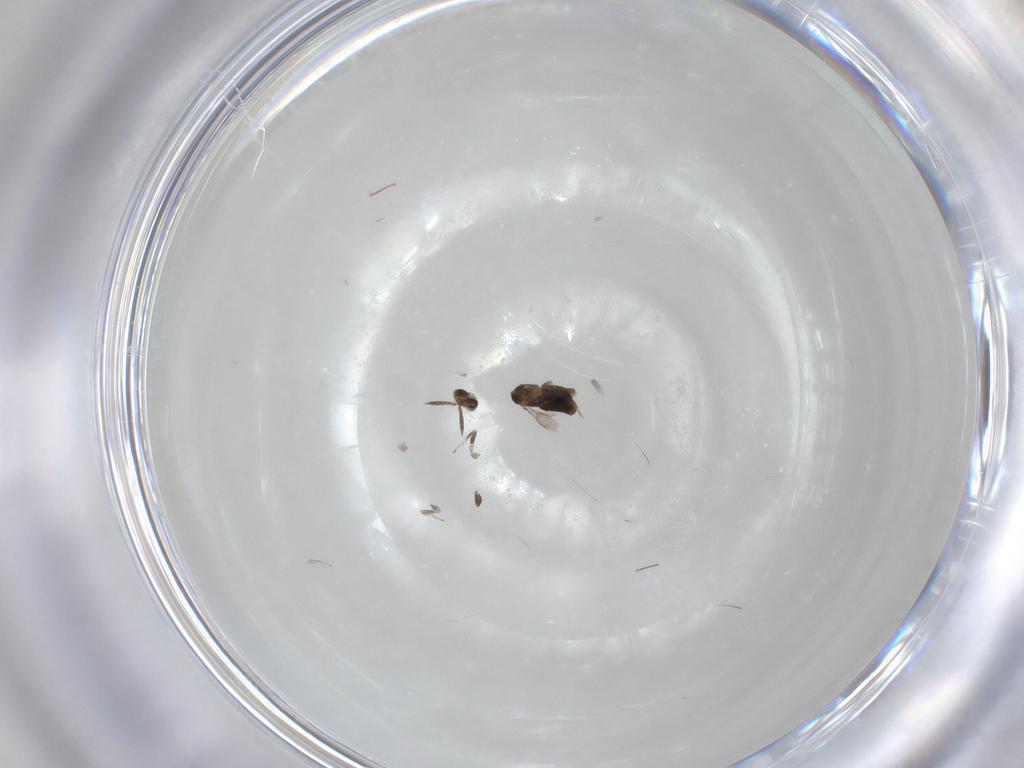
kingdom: Animalia
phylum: Arthropoda
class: Insecta
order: Hymenoptera
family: Aphelinidae
